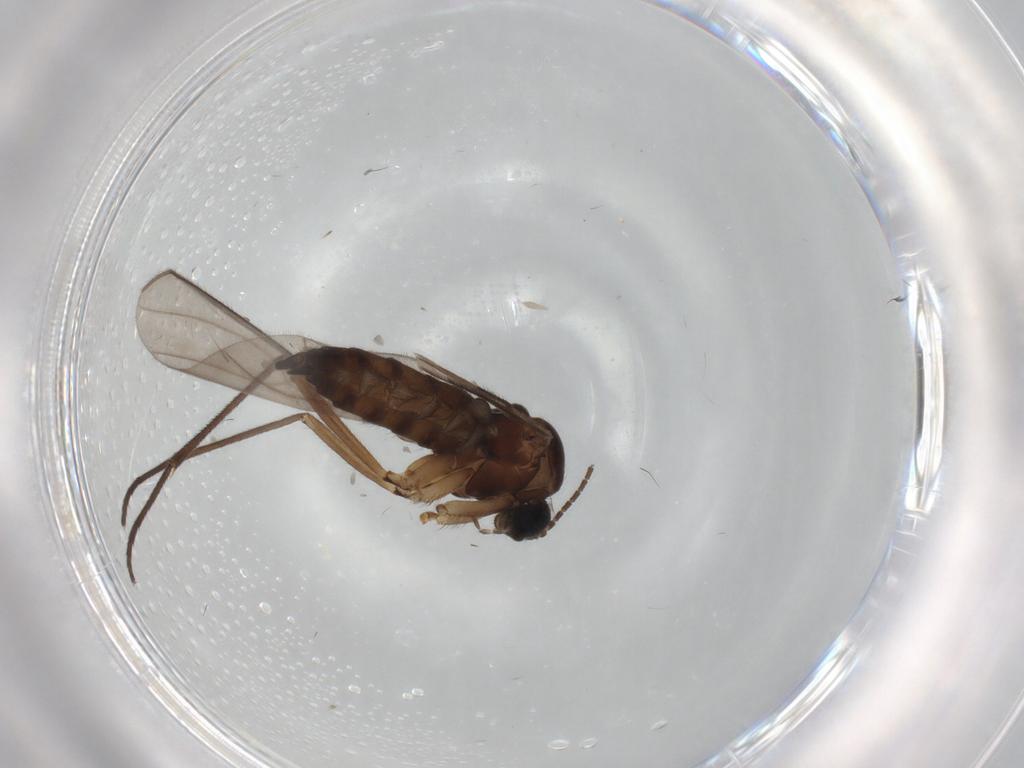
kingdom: Animalia
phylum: Arthropoda
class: Insecta
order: Diptera
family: Sciaridae
